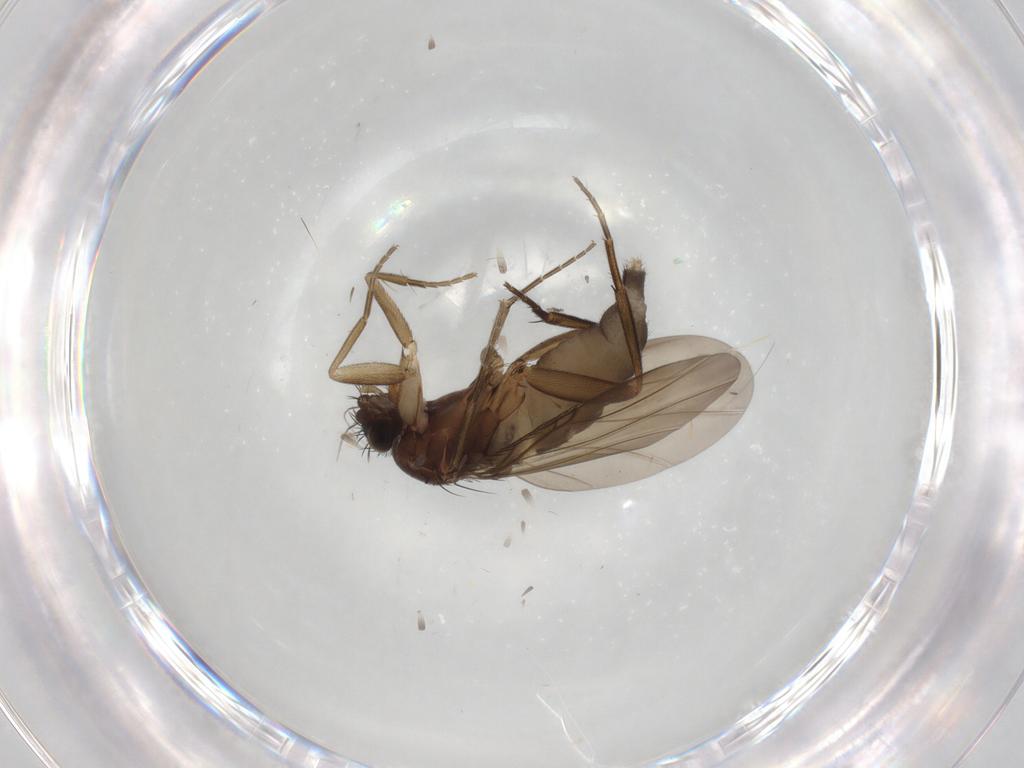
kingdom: Animalia
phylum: Arthropoda
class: Insecta
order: Diptera
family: Phoridae
